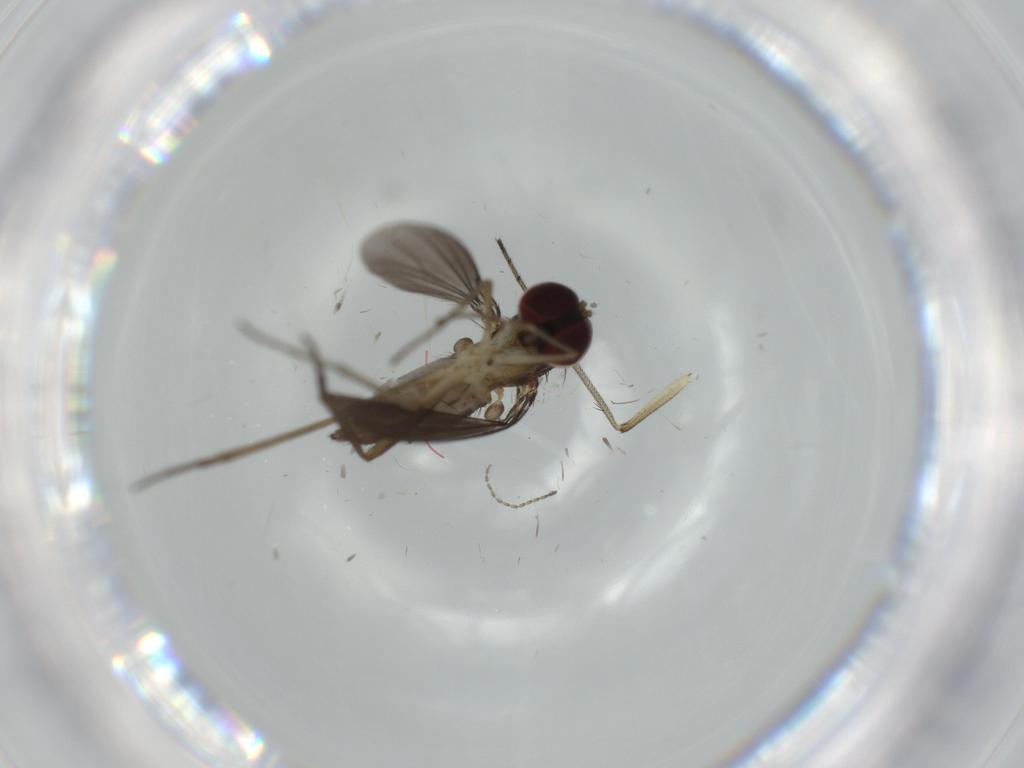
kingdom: Animalia
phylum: Arthropoda
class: Insecta
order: Diptera
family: Dolichopodidae
